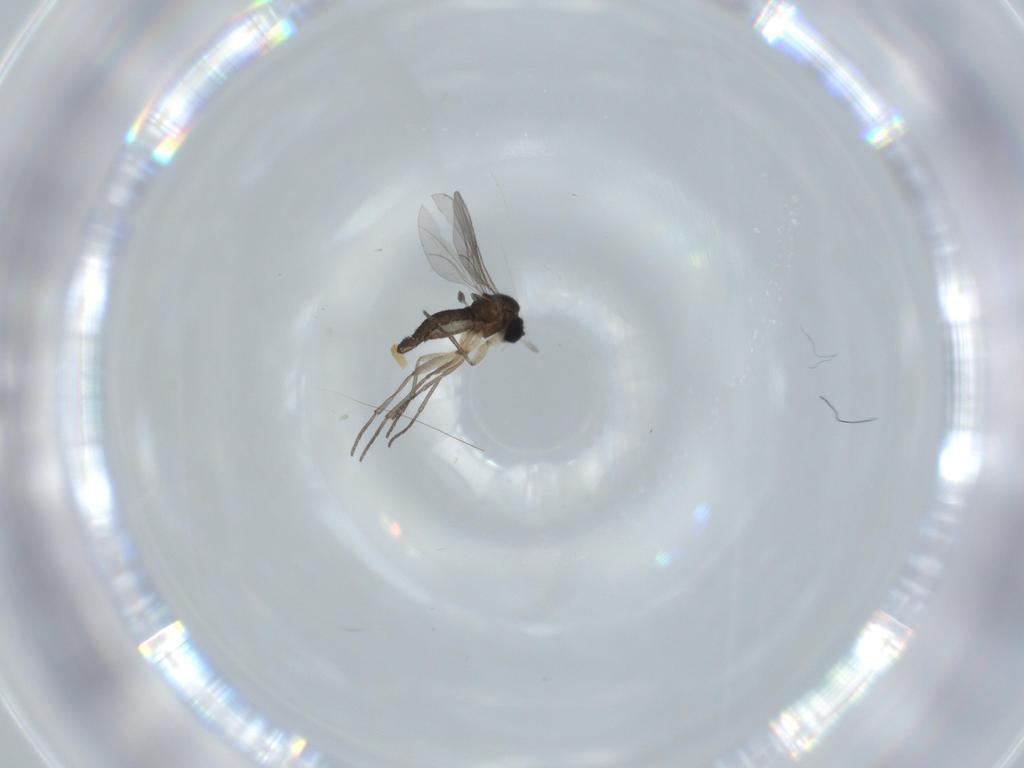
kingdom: Animalia
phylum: Arthropoda
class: Insecta
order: Diptera
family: Sciaridae
